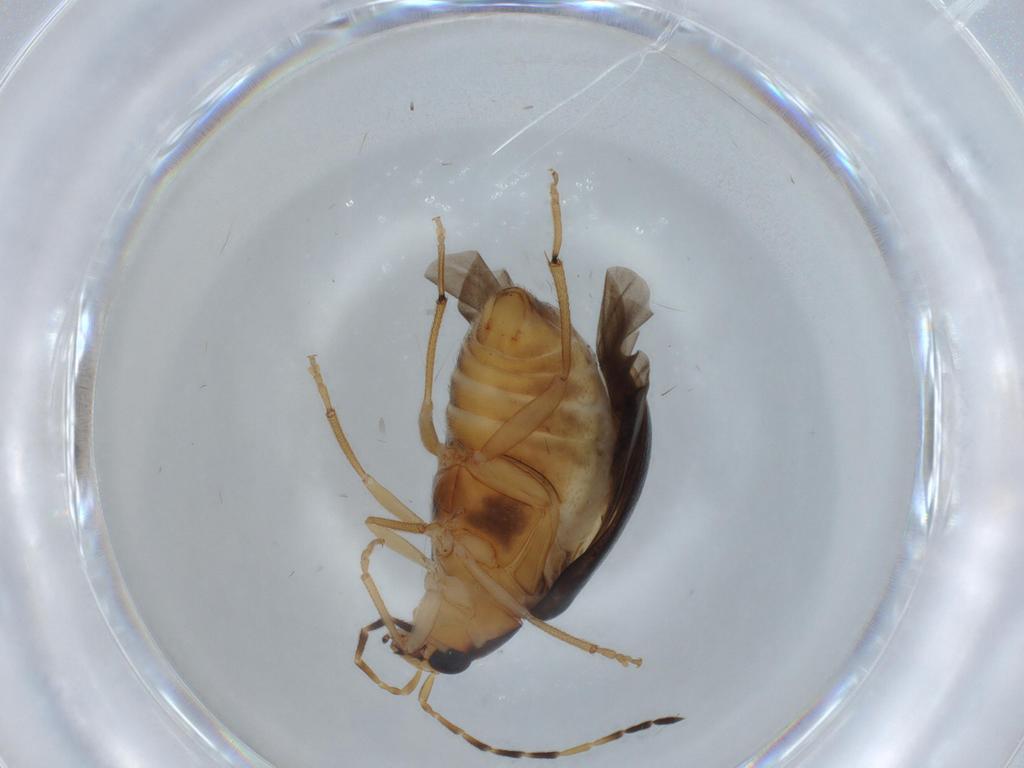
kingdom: Animalia
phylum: Arthropoda
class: Insecta
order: Coleoptera
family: Chrysomelidae
